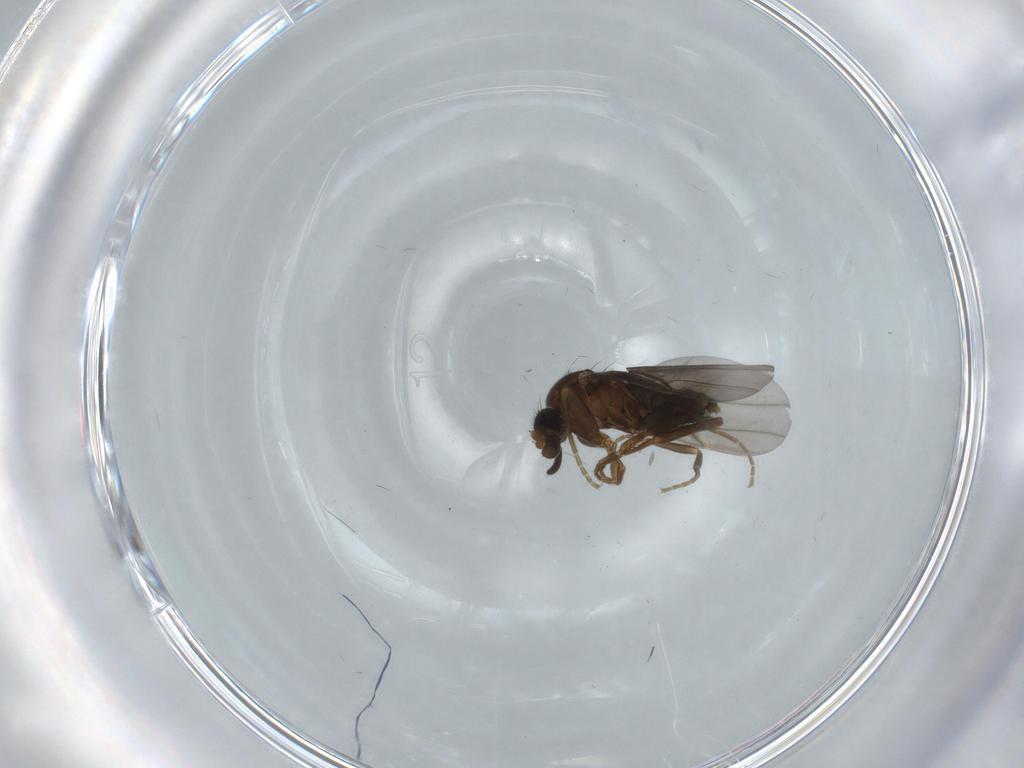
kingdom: Animalia
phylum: Arthropoda
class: Insecta
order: Diptera
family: Phoridae
